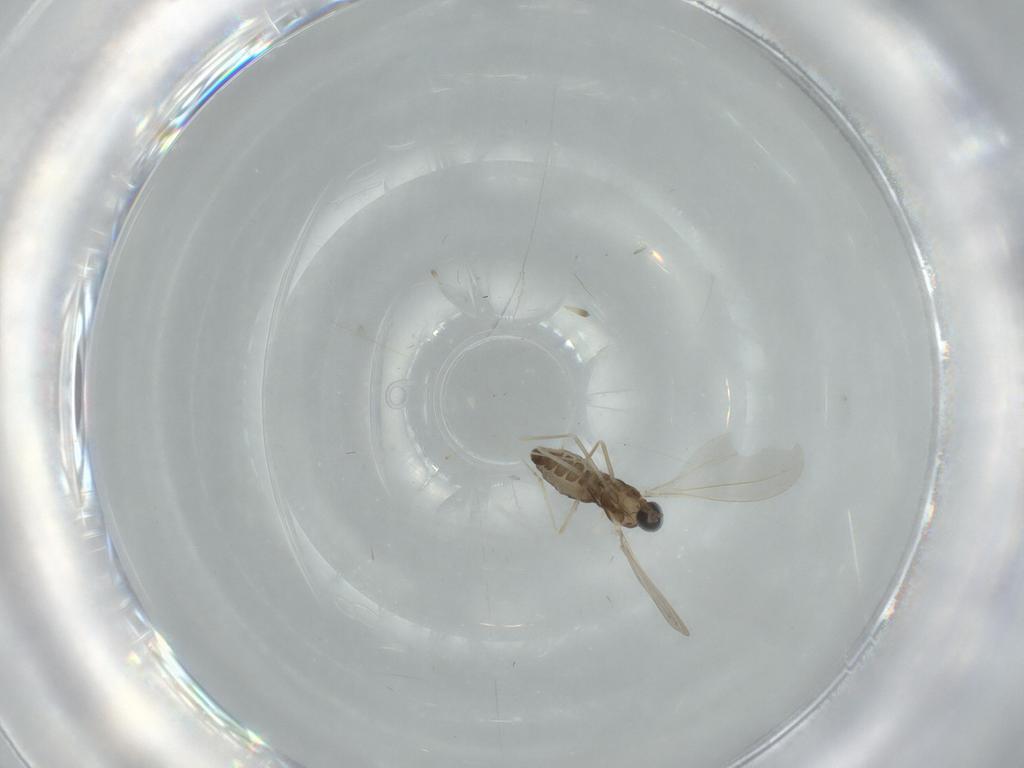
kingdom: Animalia
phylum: Arthropoda
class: Insecta
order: Diptera
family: Cecidomyiidae
